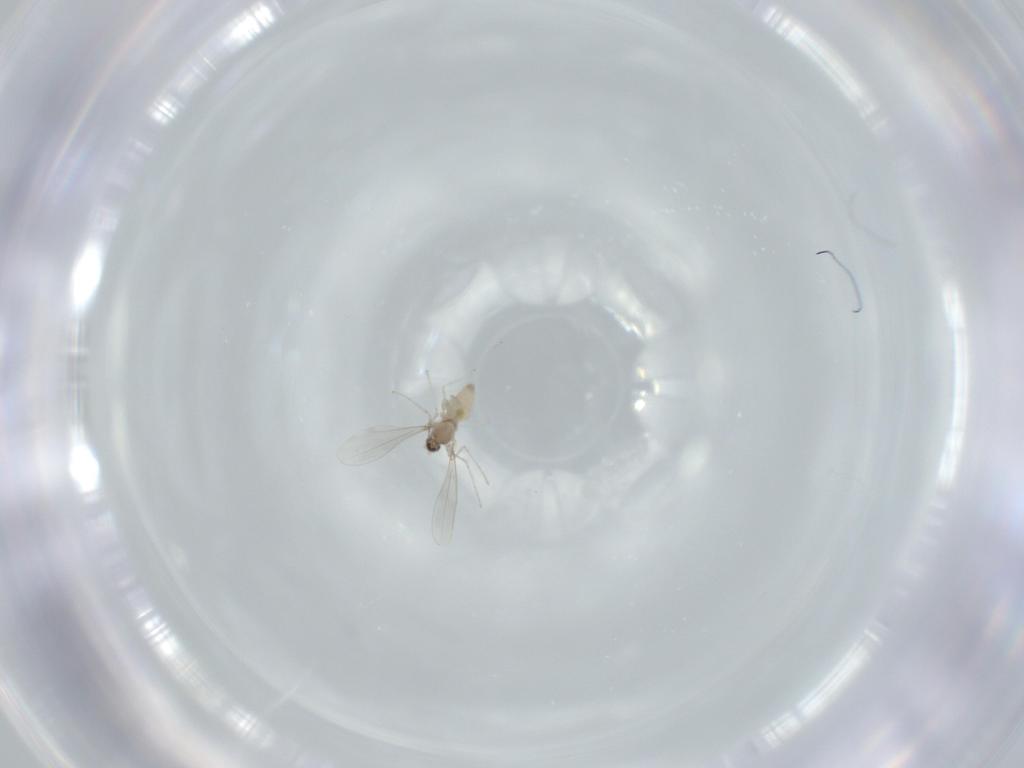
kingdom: Animalia
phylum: Arthropoda
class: Insecta
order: Diptera
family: Cecidomyiidae
